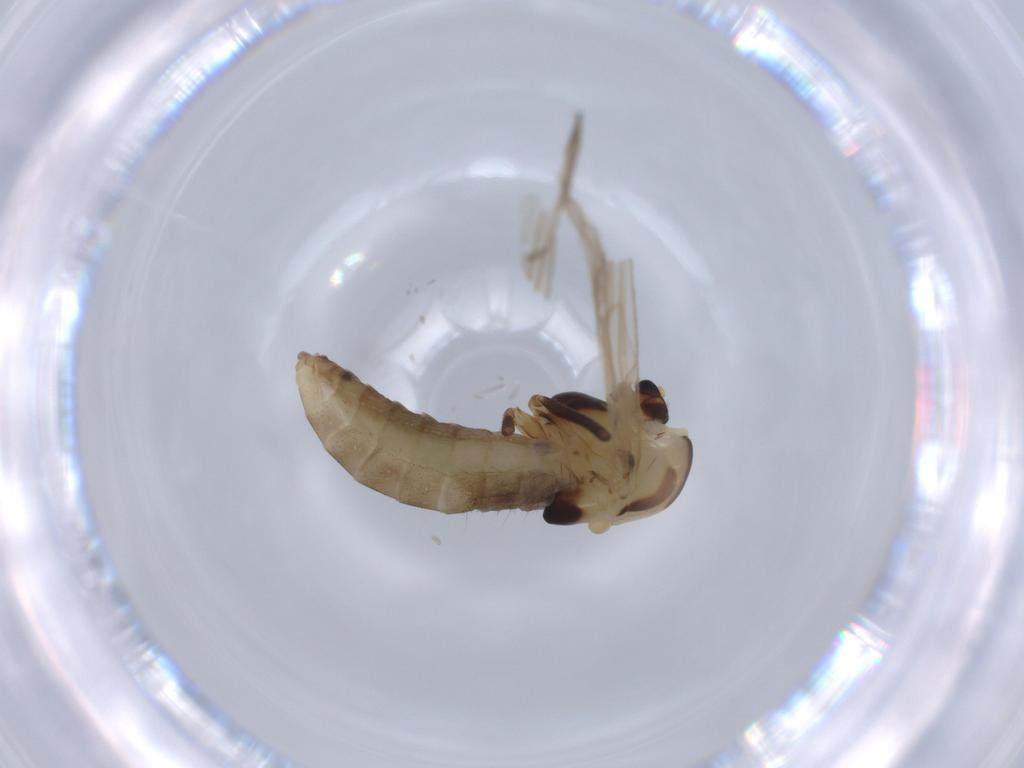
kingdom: Animalia
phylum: Arthropoda
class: Insecta
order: Diptera
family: Chironomidae
